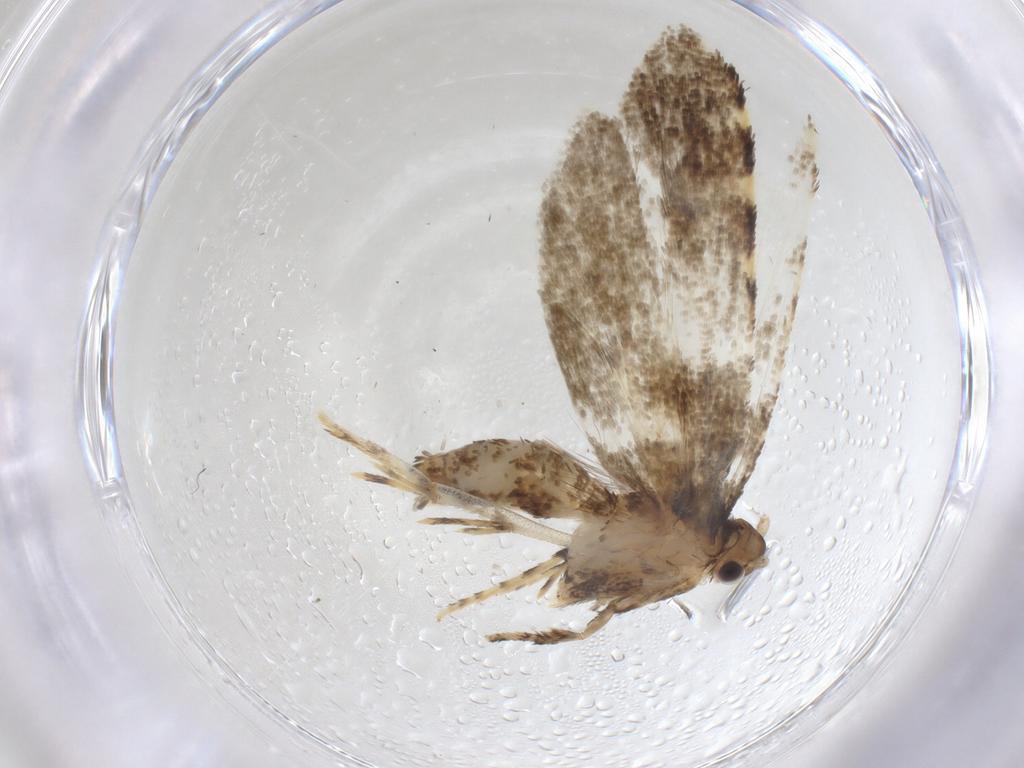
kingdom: Animalia
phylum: Arthropoda
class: Insecta
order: Lepidoptera
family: Tineidae
